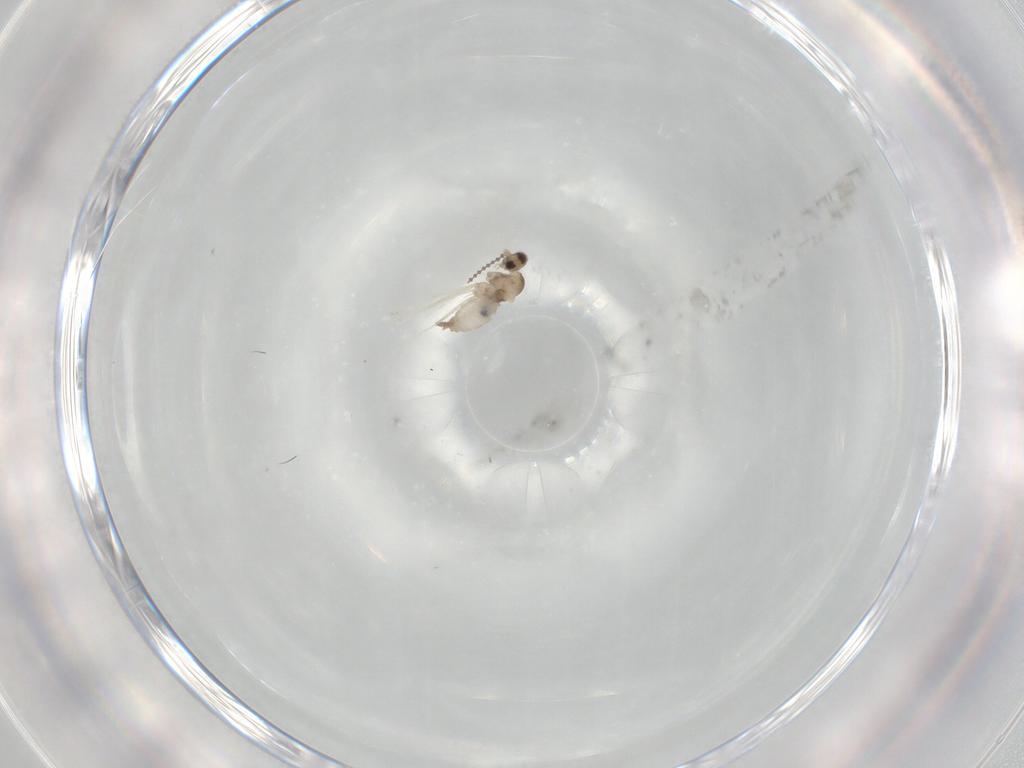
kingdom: Animalia
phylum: Arthropoda
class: Insecta
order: Diptera
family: Cecidomyiidae
